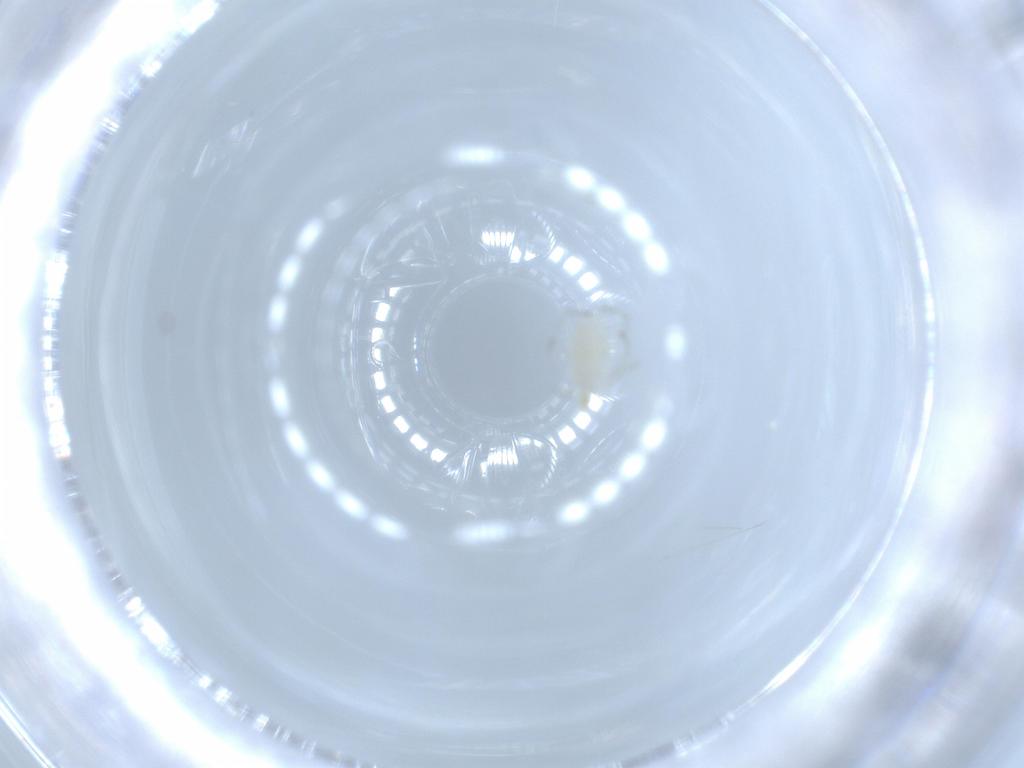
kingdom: Animalia
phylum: Arthropoda
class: Arachnida
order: Trombidiformes
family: Erythraeidae
